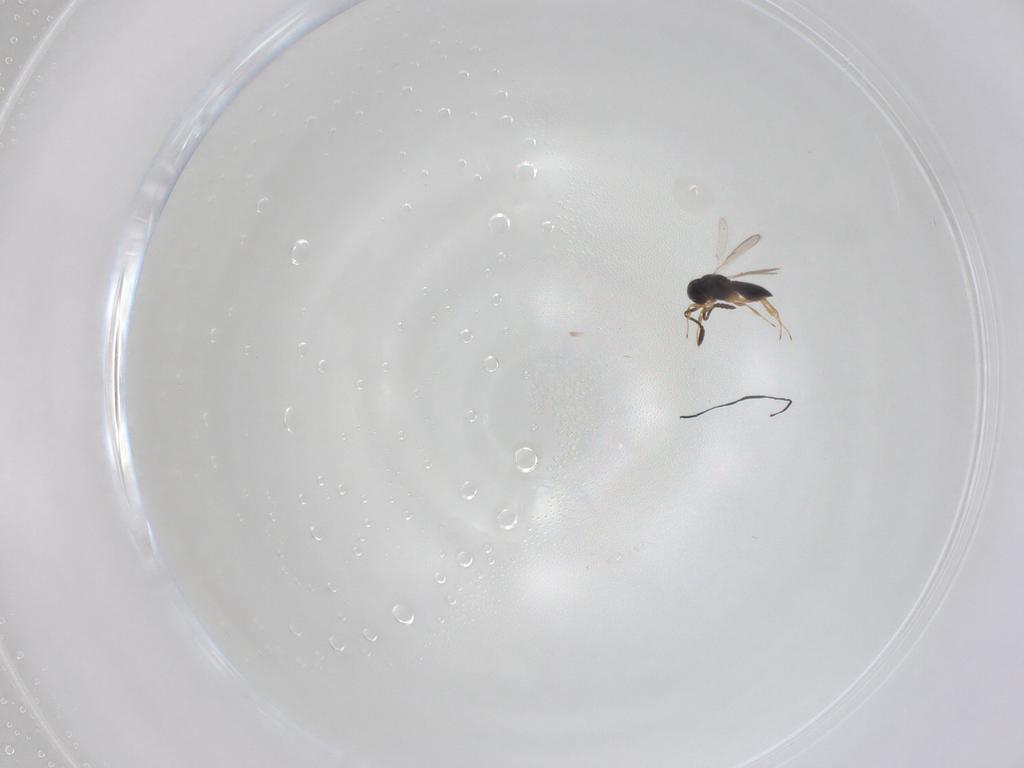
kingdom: Animalia
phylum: Arthropoda
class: Insecta
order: Hymenoptera
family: Scelionidae
